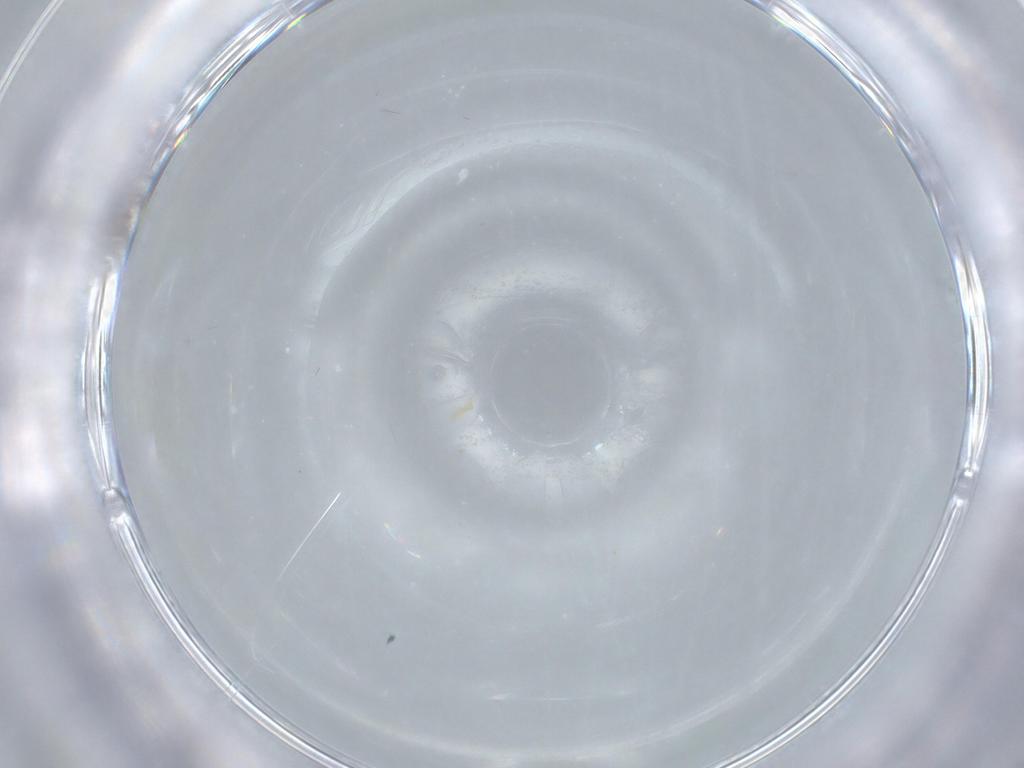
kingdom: Animalia
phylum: Arthropoda
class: Insecta
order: Diptera
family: Cecidomyiidae
